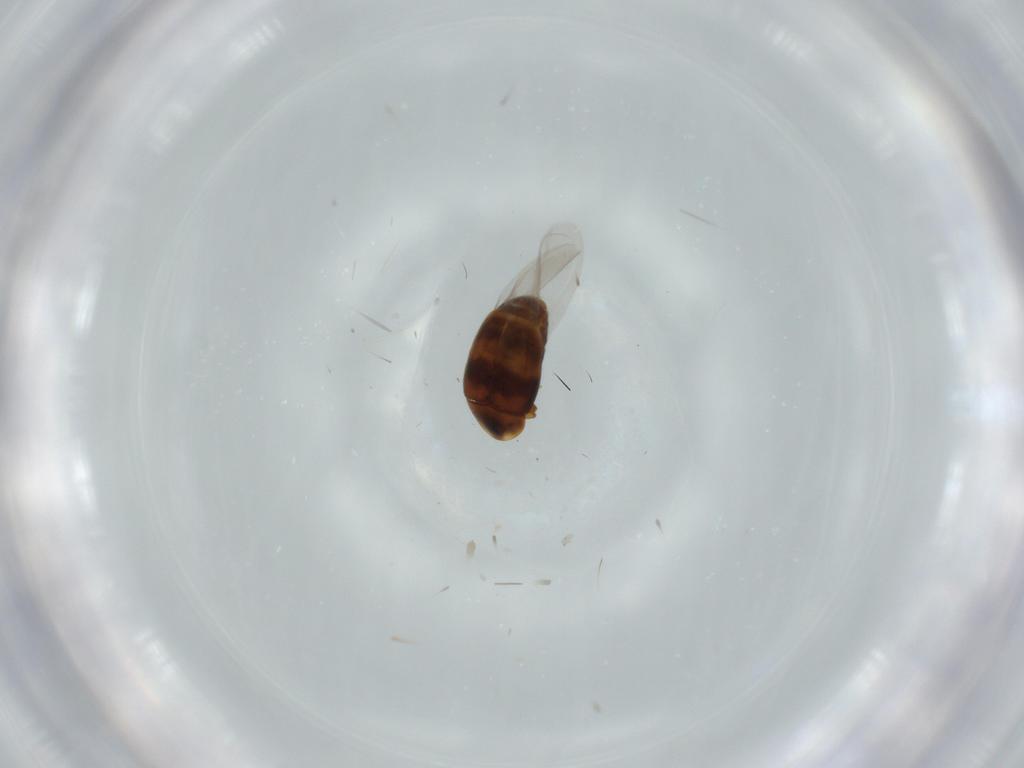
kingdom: Animalia
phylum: Arthropoda
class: Insecta
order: Coleoptera
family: Corylophidae
